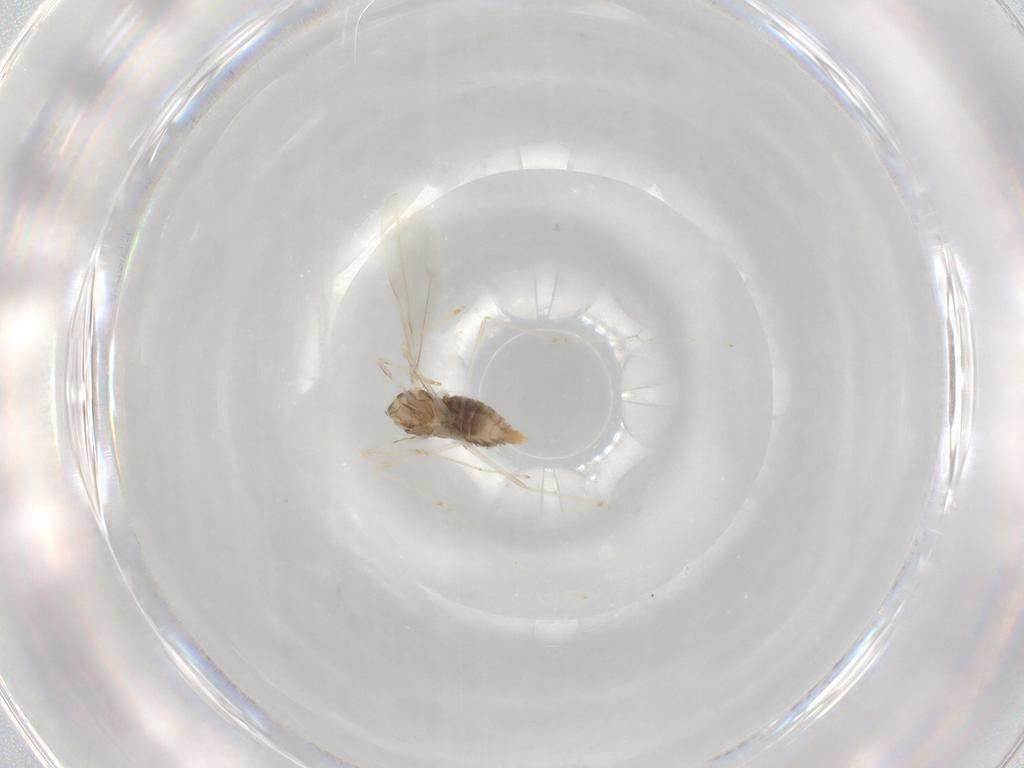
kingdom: Animalia
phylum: Arthropoda
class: Insecta
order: Diptera
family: Cecidomyiidae
